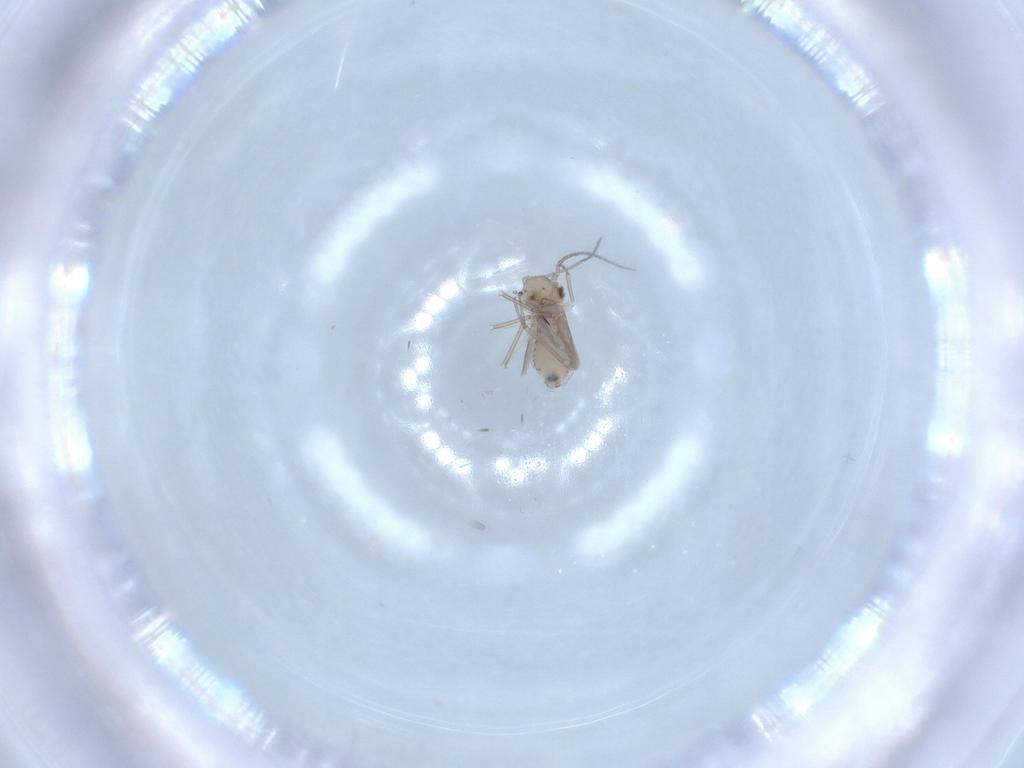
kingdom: Animalia
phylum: Arthropoda
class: Insecta
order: Psocodea
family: Lachesillidae
